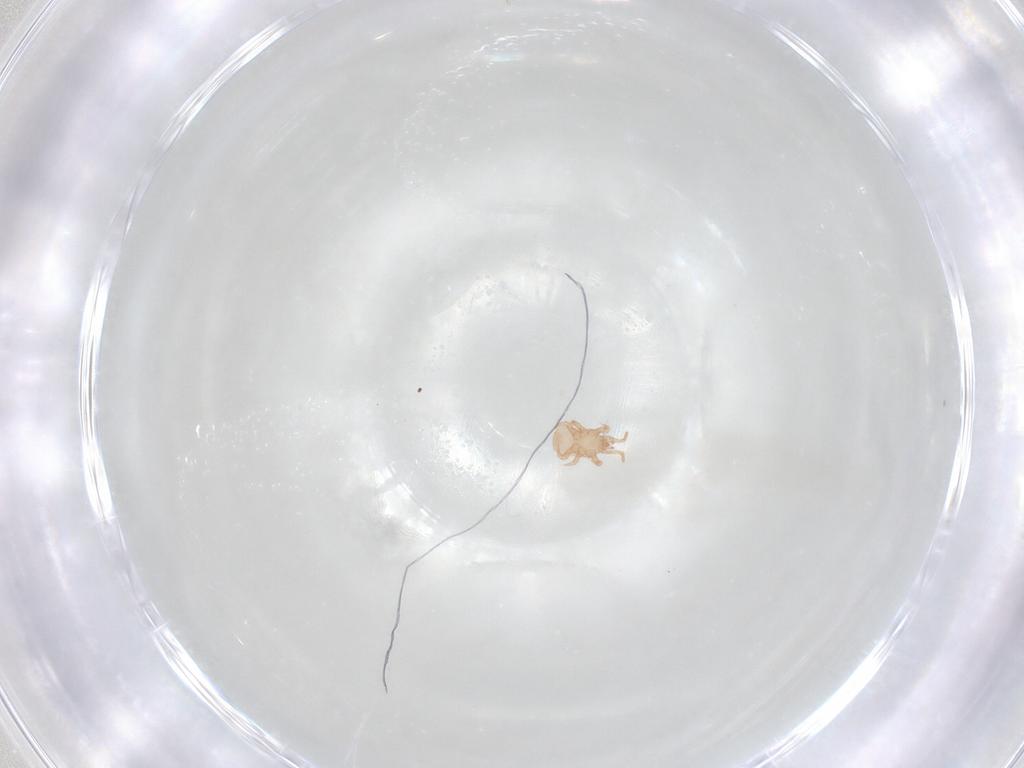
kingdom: Animalia
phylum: Arthropoda
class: Arachnida
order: Mesostigmata
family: Digamasellidae
